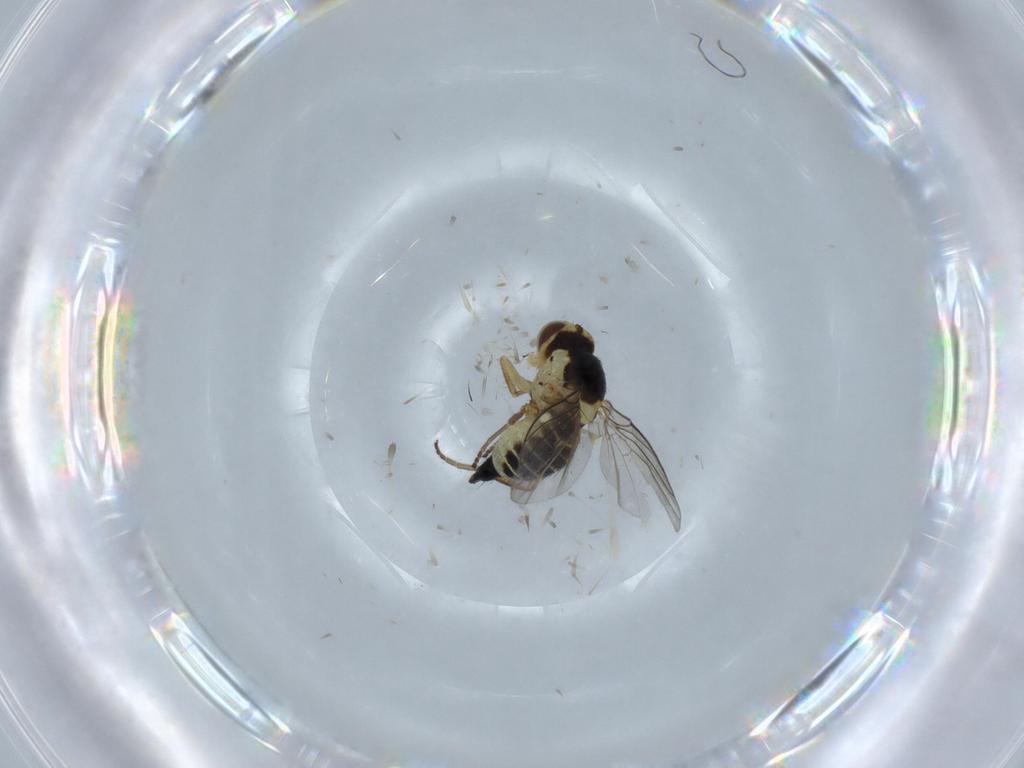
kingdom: Animalia
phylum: Arthropoda
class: Insecta
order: Diptera
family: Agromyzidae
